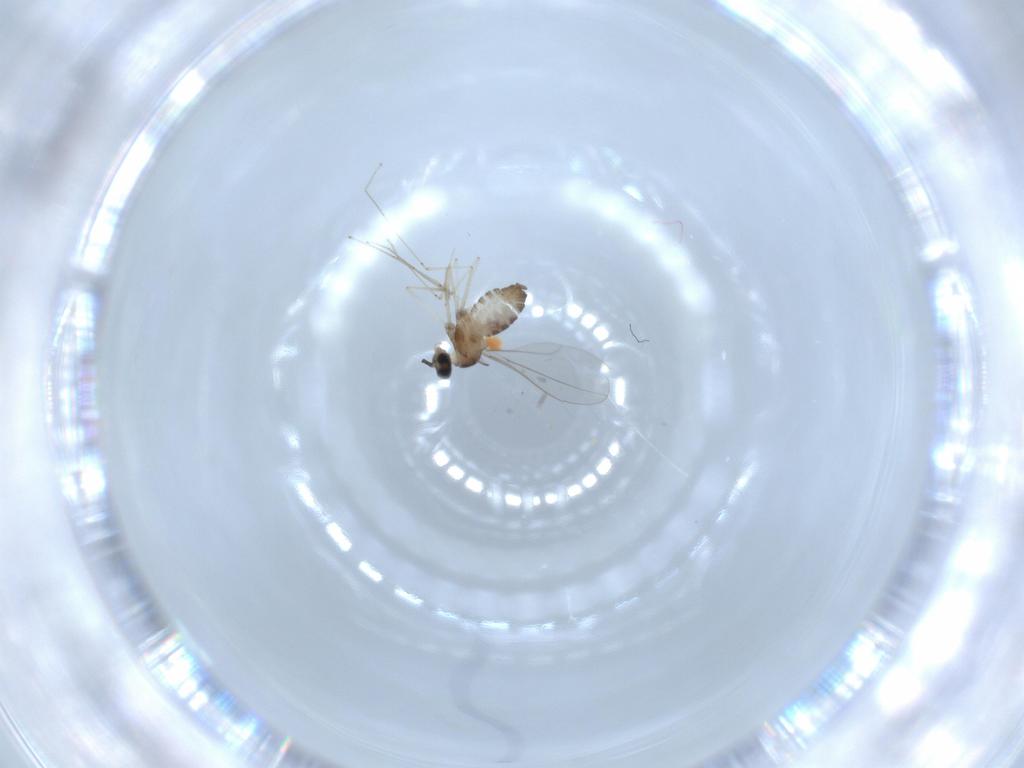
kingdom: Animalia
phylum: Arthropoda
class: Insecta
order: Diptera
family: Cecidomyiidae
